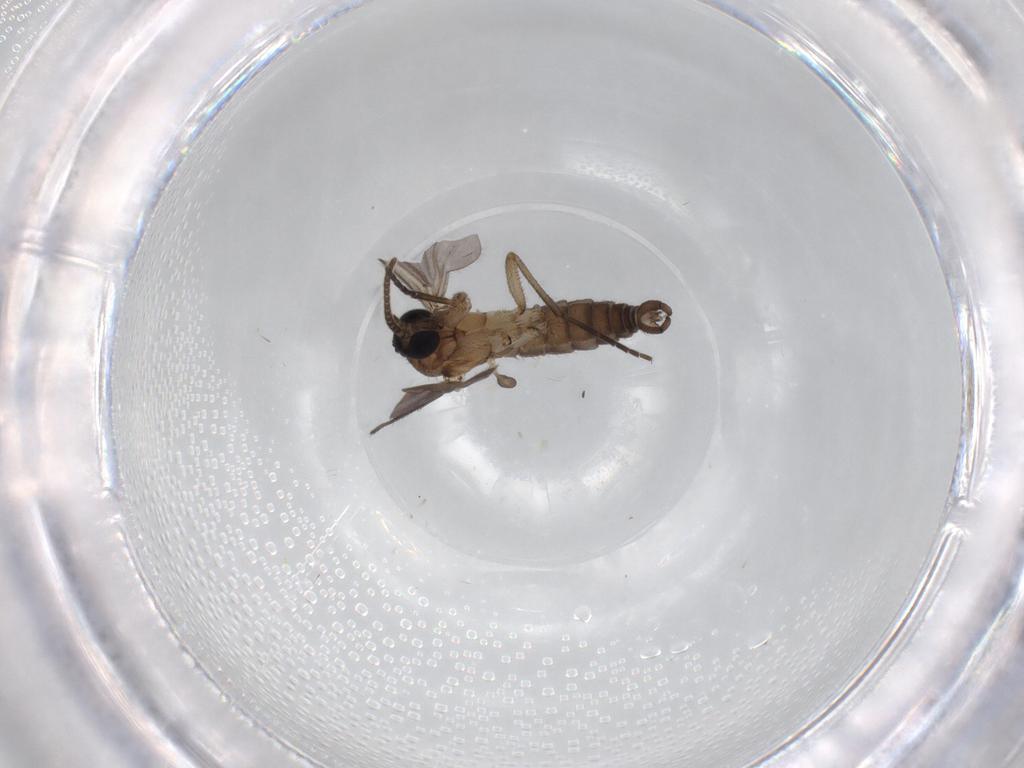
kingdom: Animalia
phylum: Arthropoda
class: Insecta
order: Diptera
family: Sciaridae
